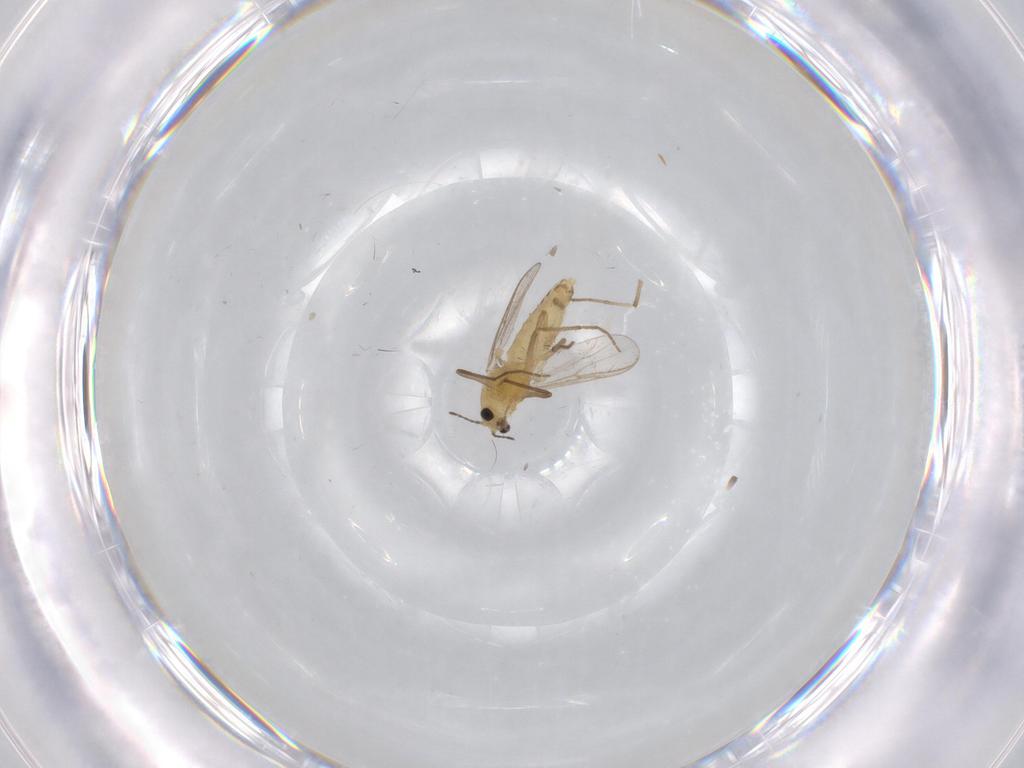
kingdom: Animalia
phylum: Arthropoda
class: Insecta
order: Diptera
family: Chironomidae
